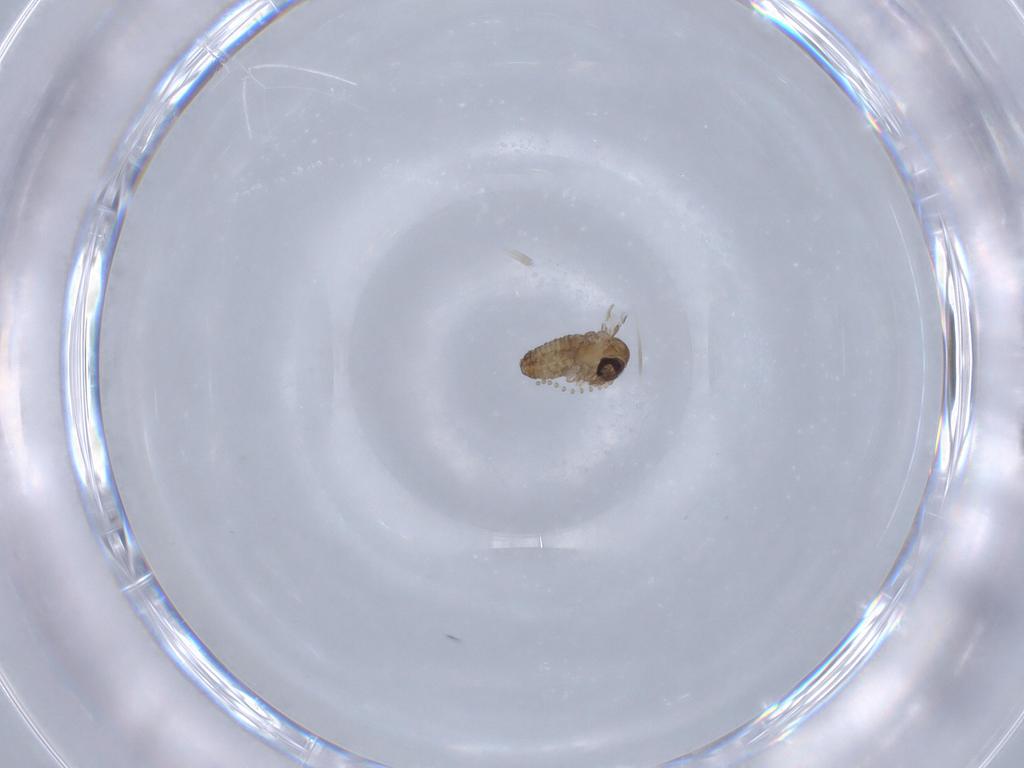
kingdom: Animalia
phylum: Arthropoda
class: Insecta
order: Diptera
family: Psychodidae
